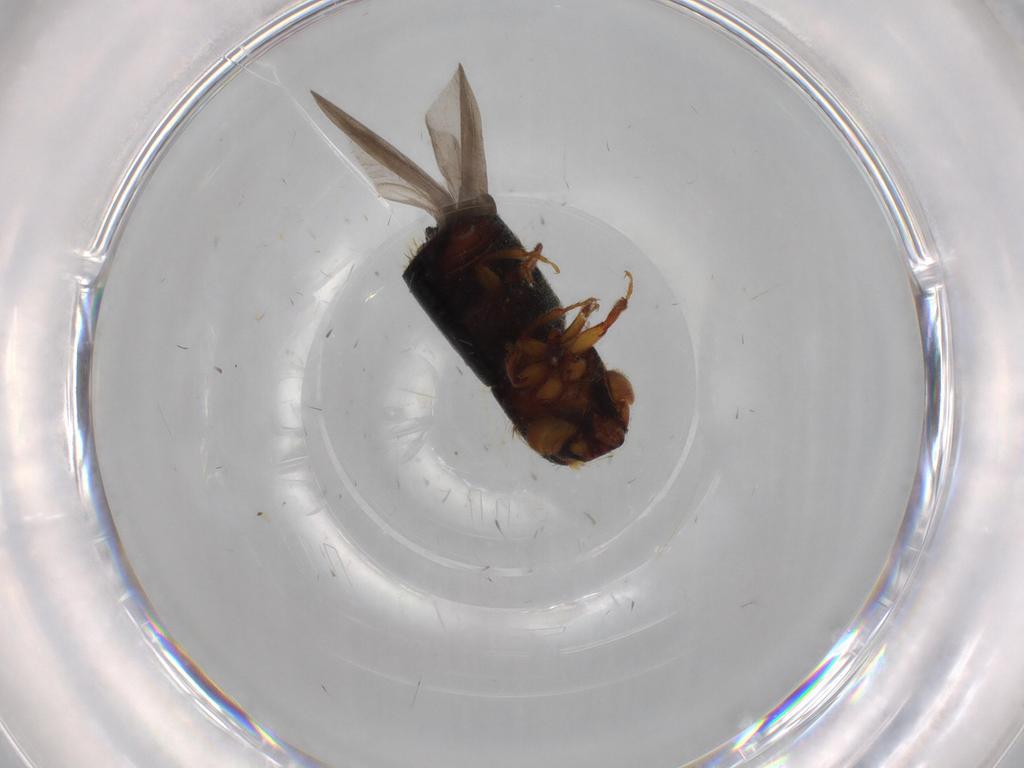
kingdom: Animalia
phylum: Arthropoda
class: Insecta
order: Coleoptera
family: Curculionidae
